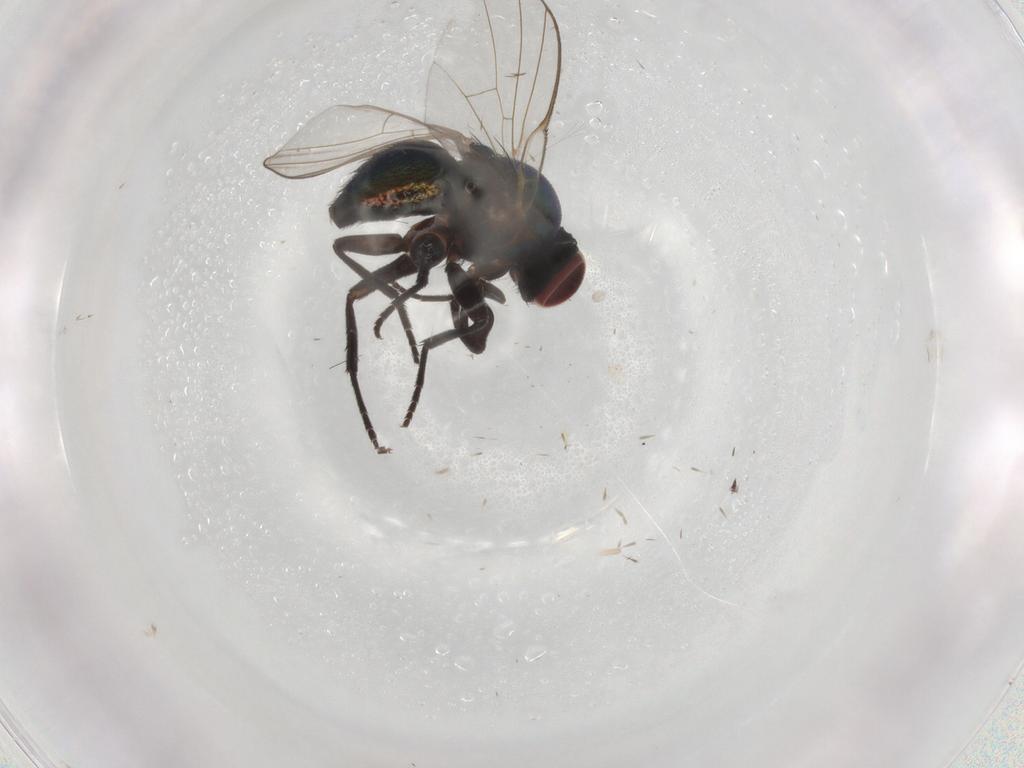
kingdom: Animalia
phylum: Arthropoda
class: Insecta
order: Diptera
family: Agromyzidae
